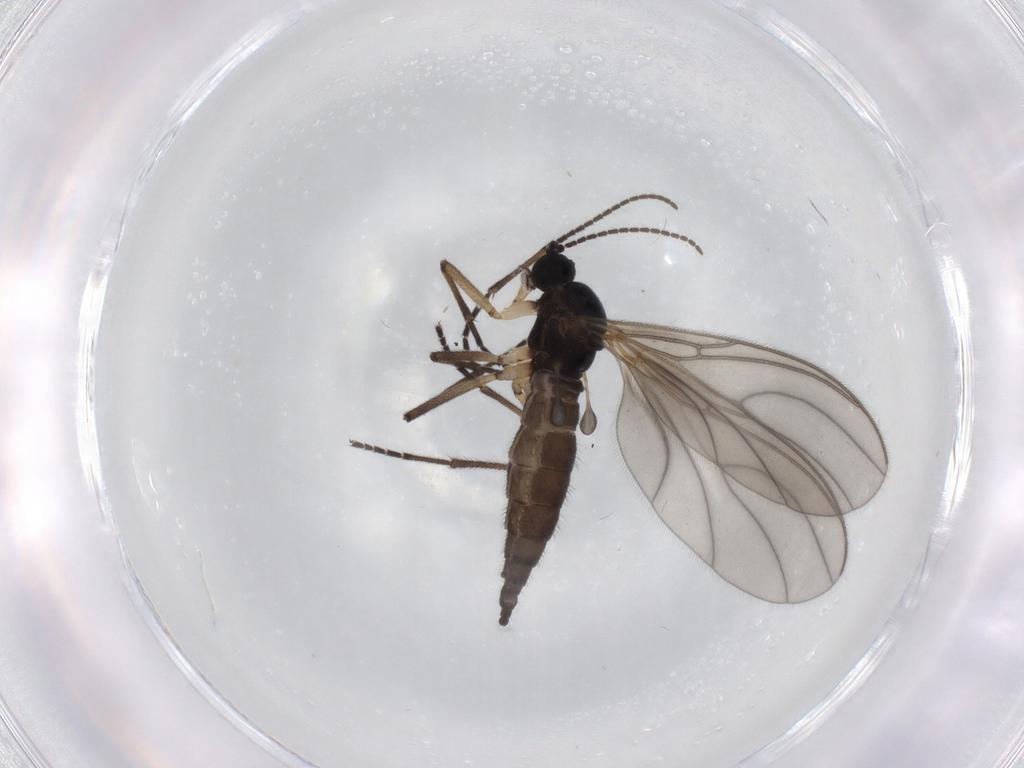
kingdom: Animalia
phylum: Arthropoda
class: Insecta
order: Diptera
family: Sciaridae
